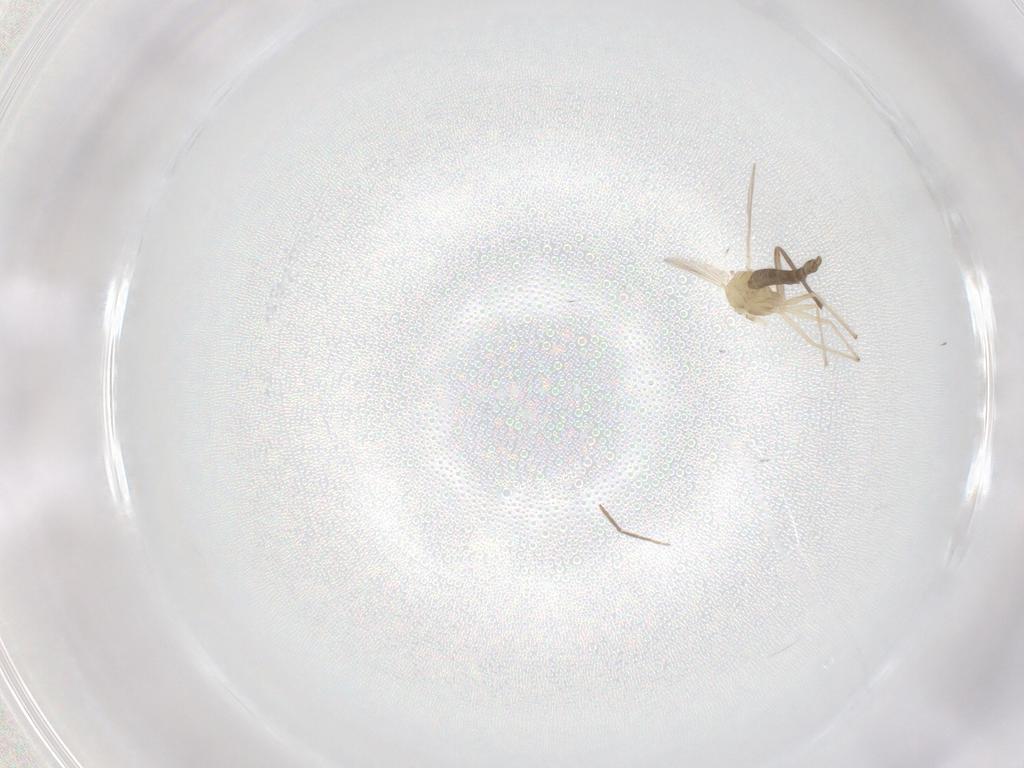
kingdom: Animalia
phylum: Arthropoda
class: Insecta
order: Diptera
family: Chironomidae
